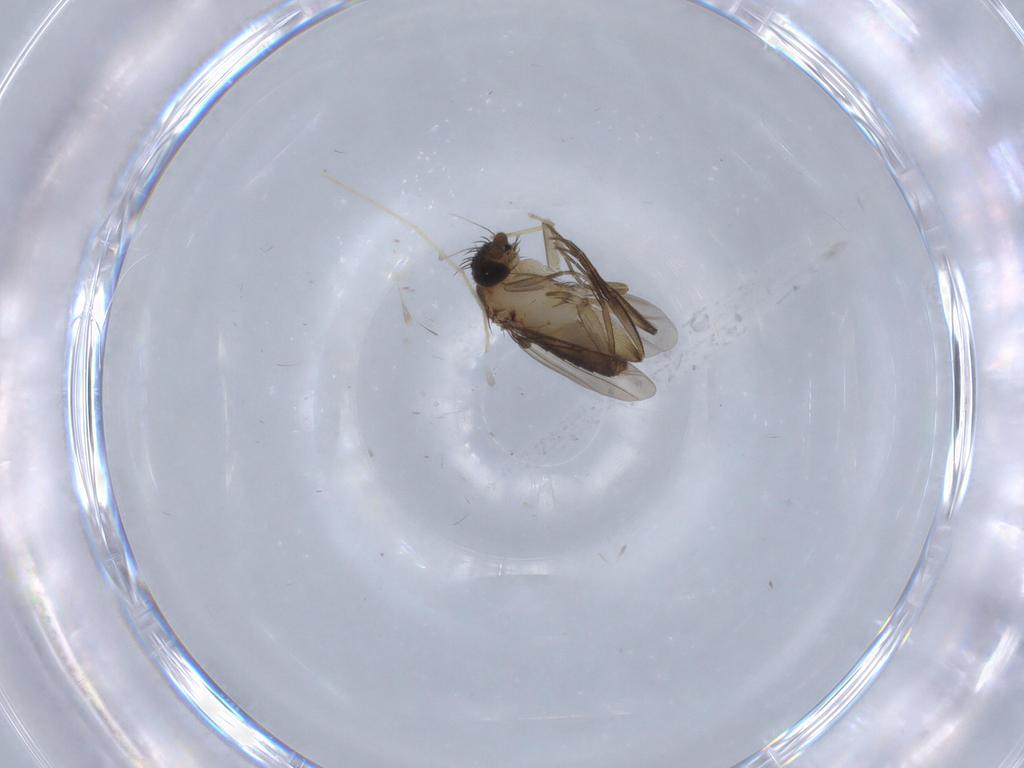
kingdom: Animalia
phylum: Arthropoda
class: Insecta
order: Diptera
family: Phoridae
